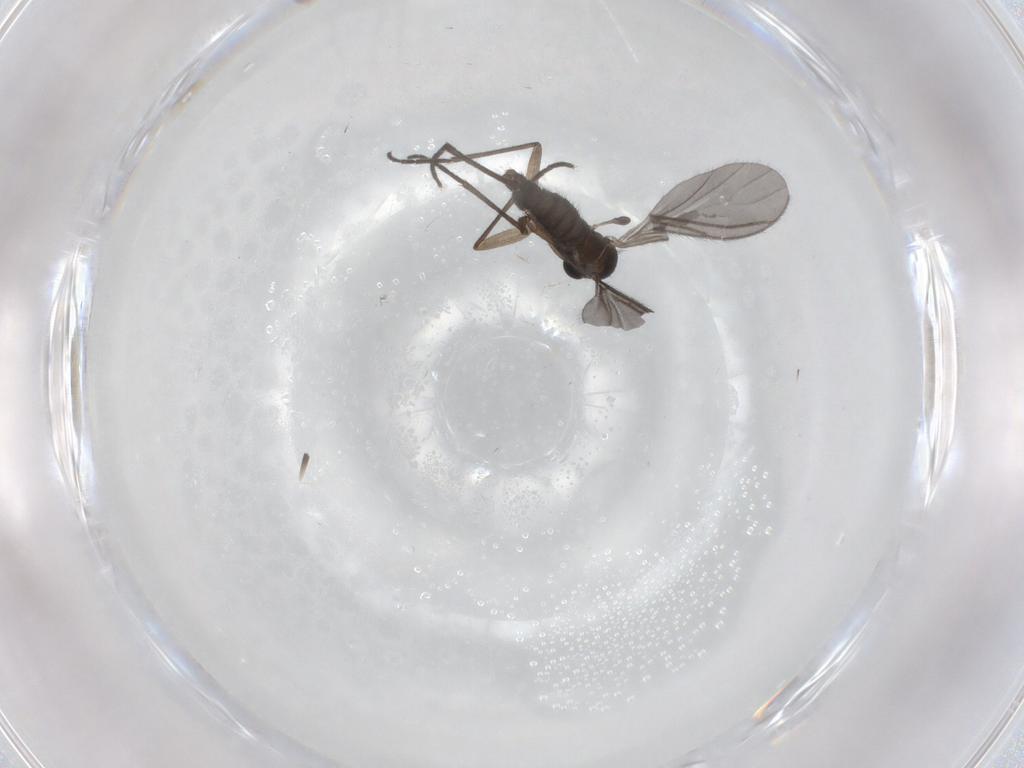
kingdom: Animalia
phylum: Arthropoda
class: Insecta
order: Diptera
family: Sciaridae
